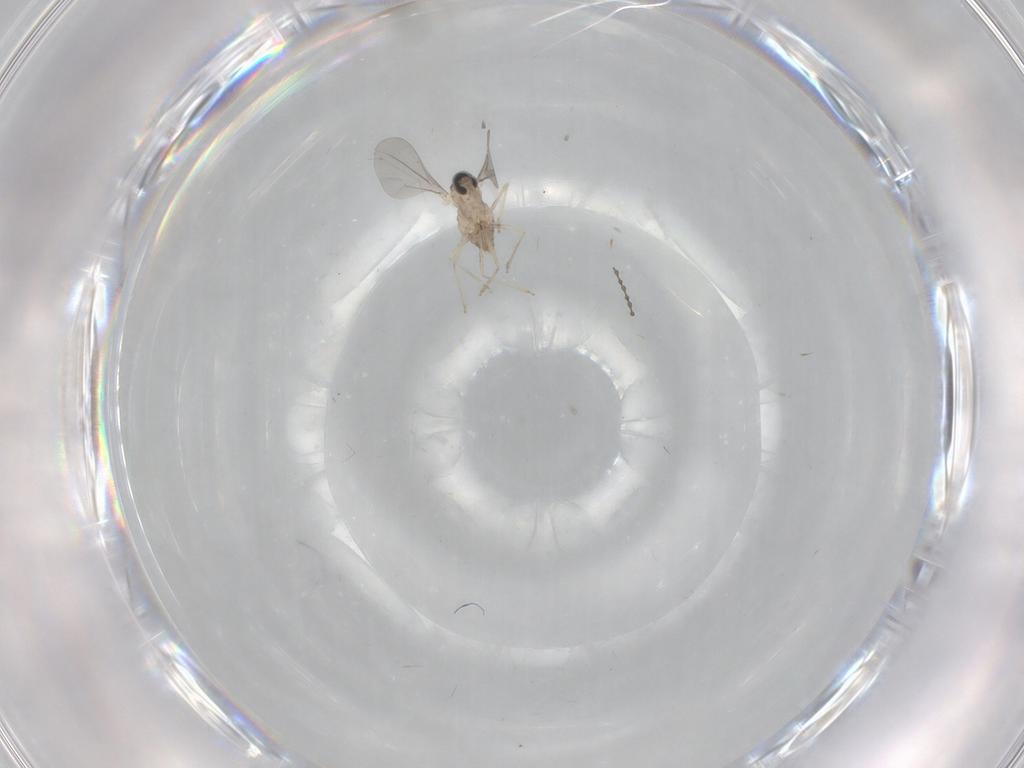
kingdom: Animalia
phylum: Arthropoda
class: Insecta
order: Diptera
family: Cecidomyiidae
